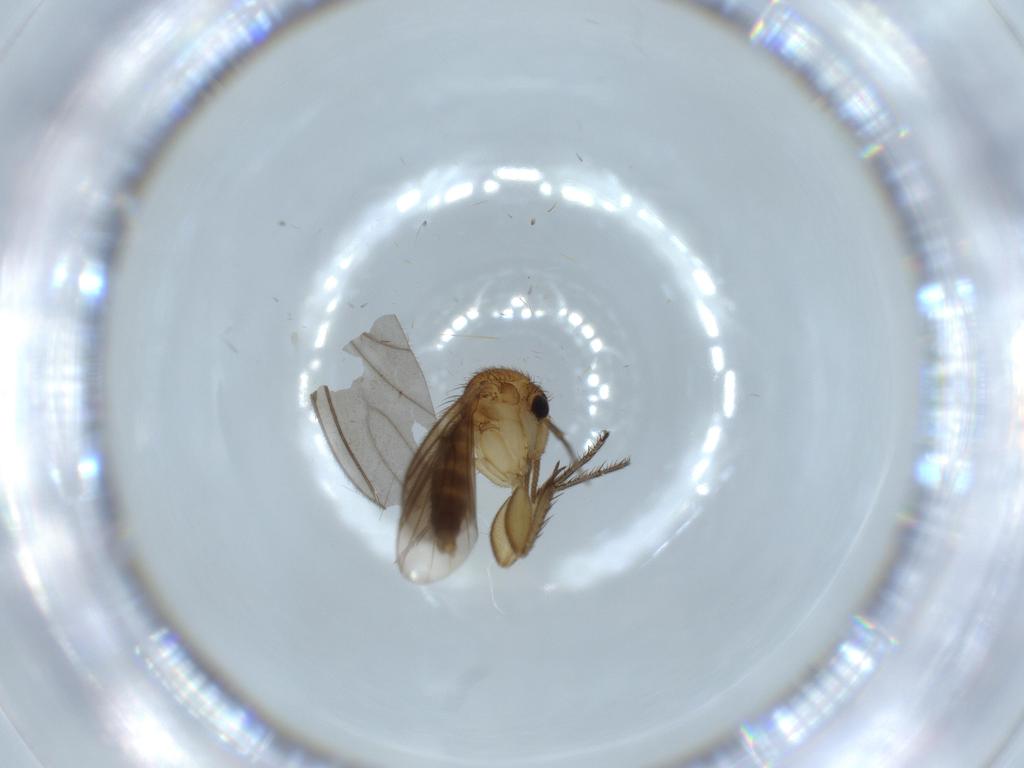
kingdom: Animalia
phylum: Arthropoda
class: Insecta
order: Diptera
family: Mycetophilidae
